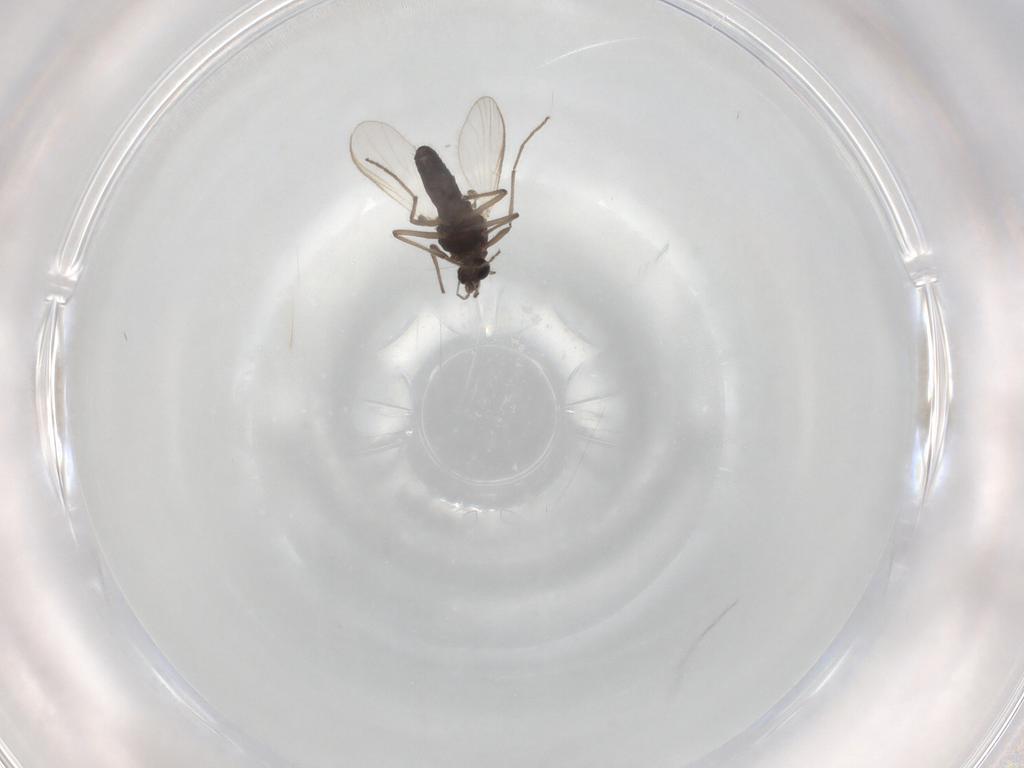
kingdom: Animalia
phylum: Arthropoda
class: Insecta
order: Diptera
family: Chironomidae
